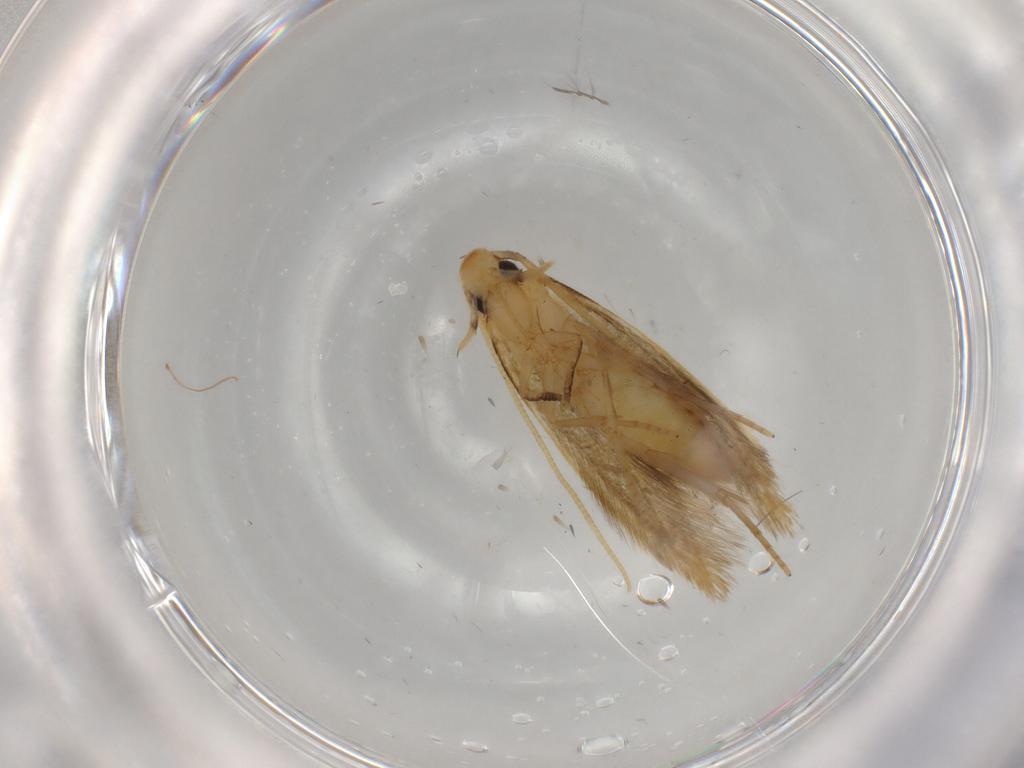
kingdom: Animalia
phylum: Arthropoda
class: Insecta
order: Lepidoptera
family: Tineidae
